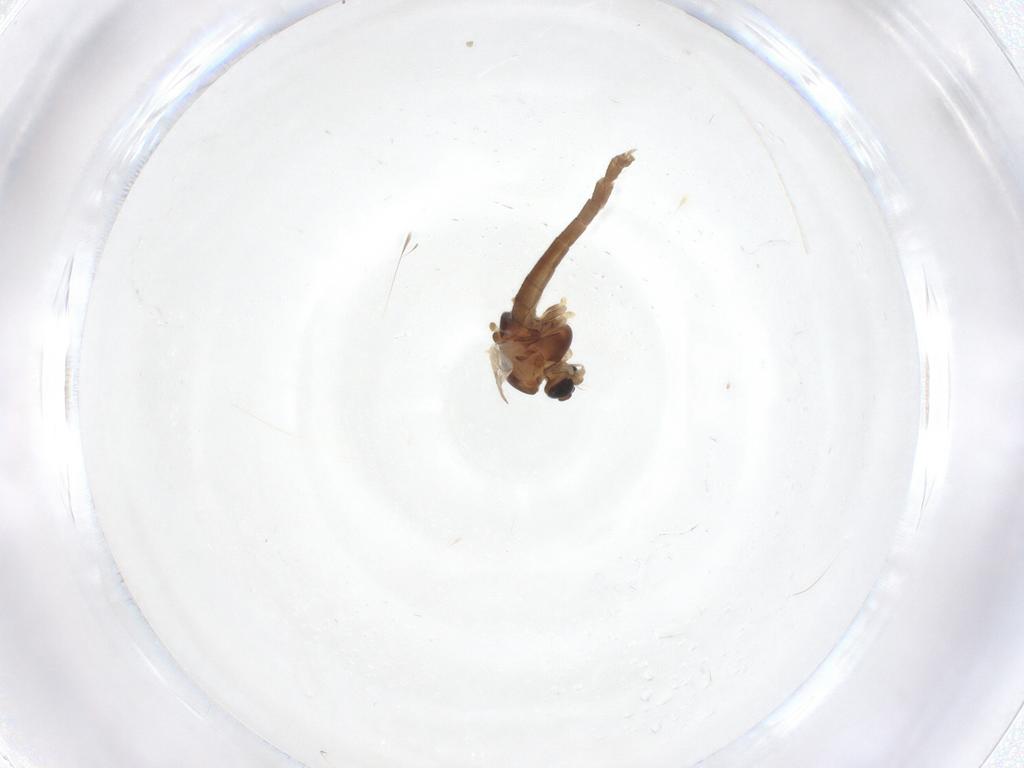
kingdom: Animalia
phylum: Arthropoda
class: Insecta
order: Diptera
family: Chironomidae
